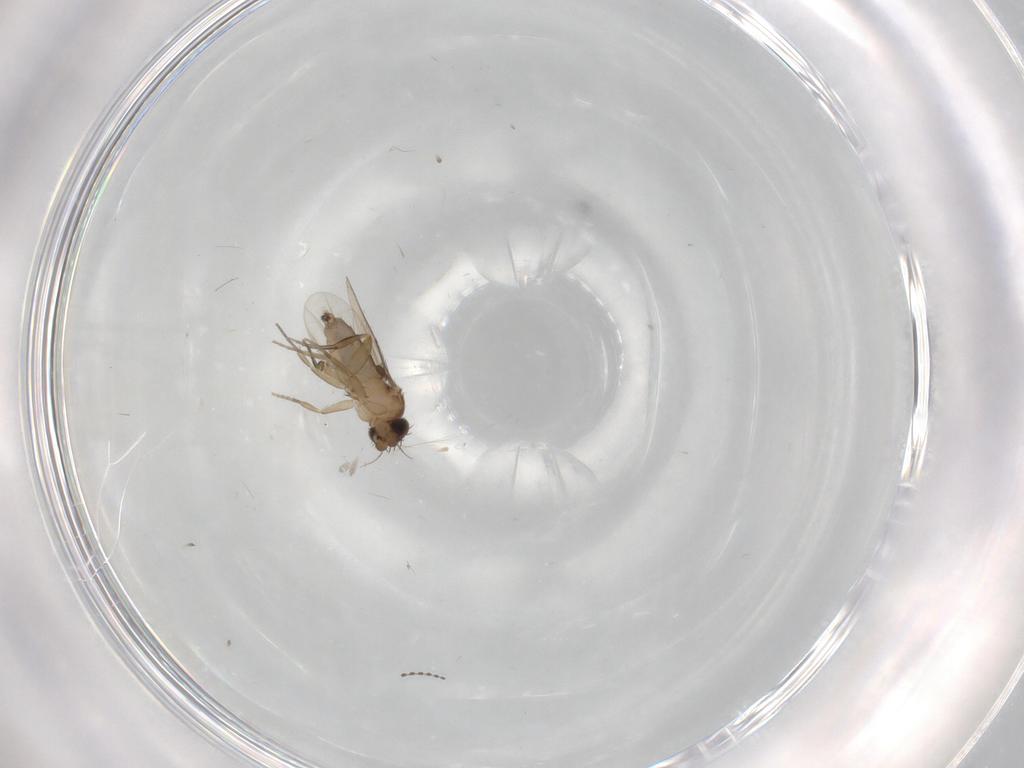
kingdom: Animalia
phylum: Arthropoda
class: Insecta
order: Diptera
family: Phoridae
